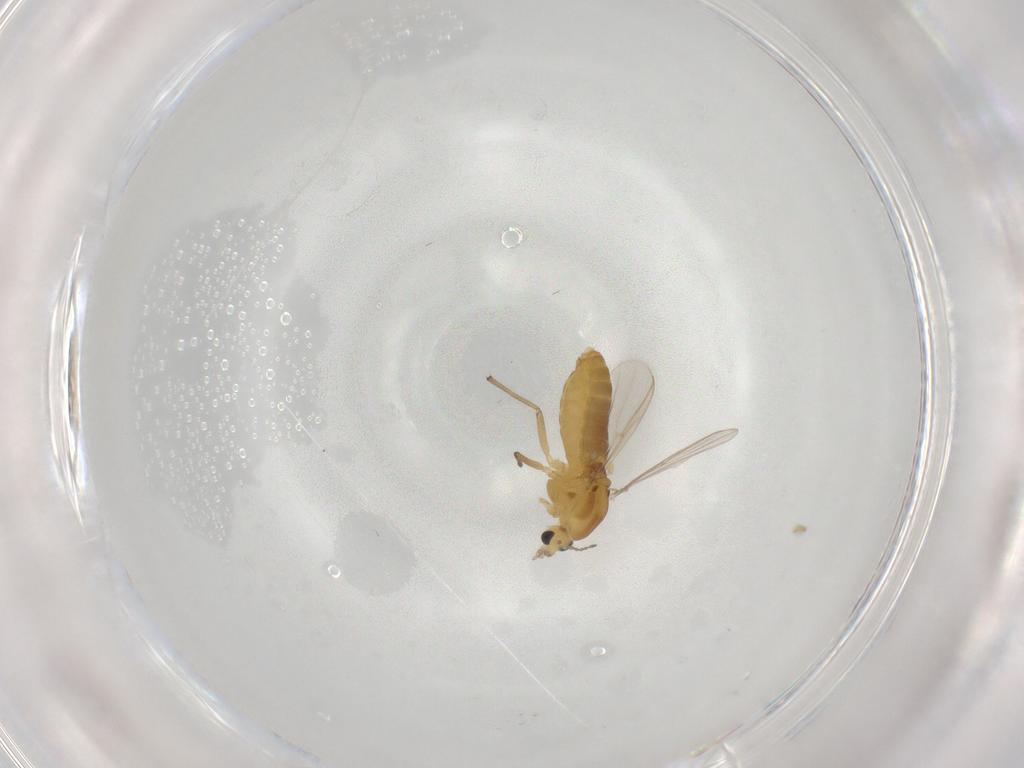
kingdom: Animalia
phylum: Arthropoda
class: Insecta
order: Diptera
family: Chironomidae
